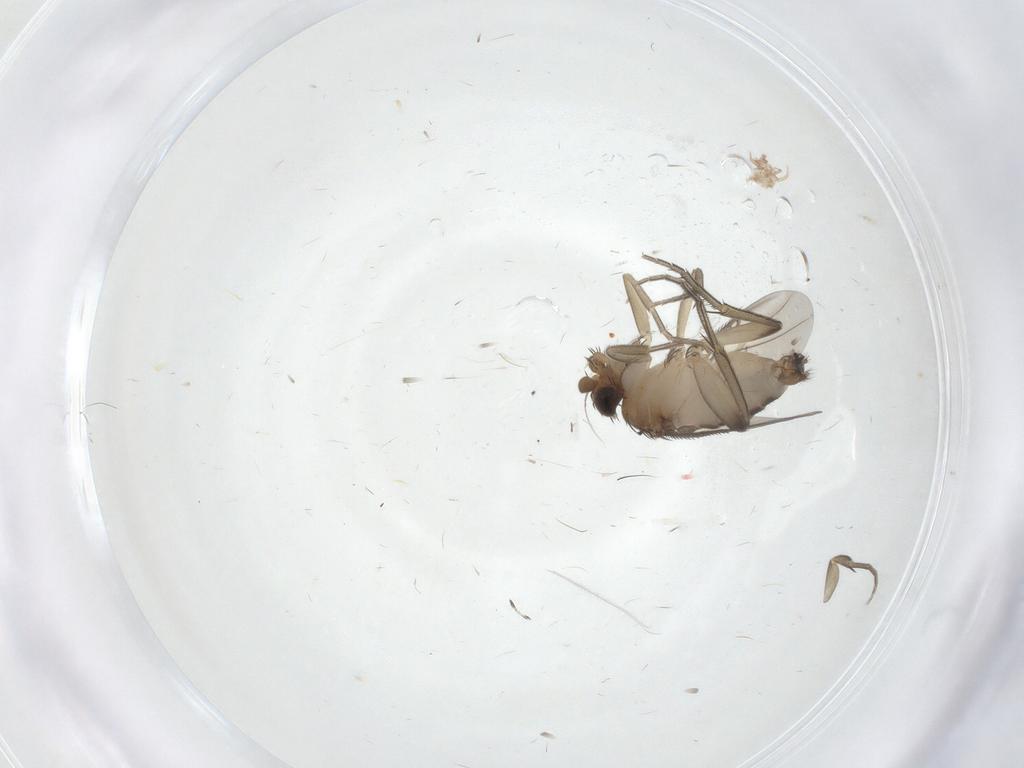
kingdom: Animalia
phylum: Arthropoda
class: Insecta
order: Diptera
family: Phoridae
